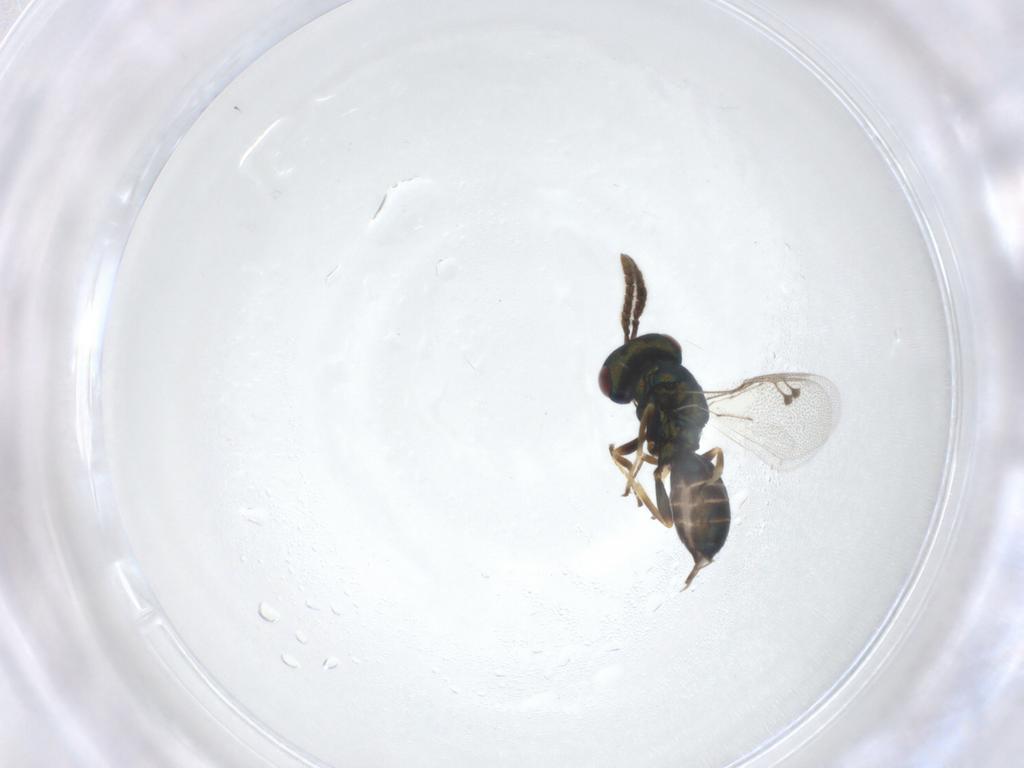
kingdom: Animalia
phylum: Arthropoda
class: Insecta
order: Hymenoptera
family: Pteromalidae
